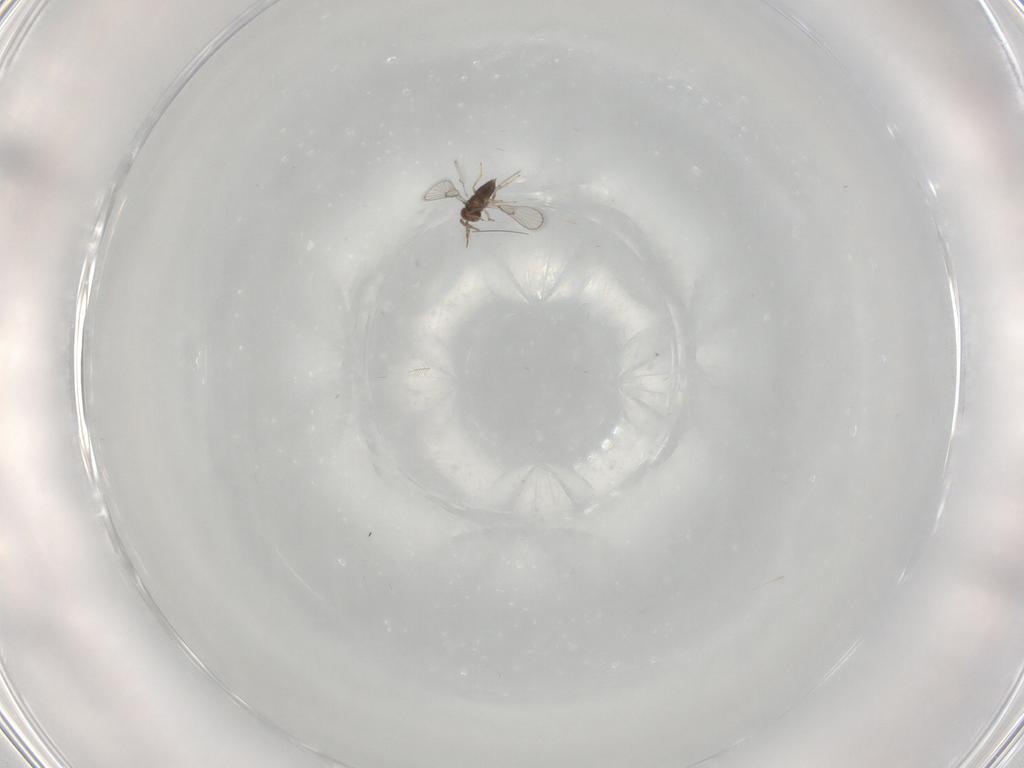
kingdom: Animalia
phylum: Arthropoda
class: Insecta
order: Hymenoptera
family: Trichogrammatidae
